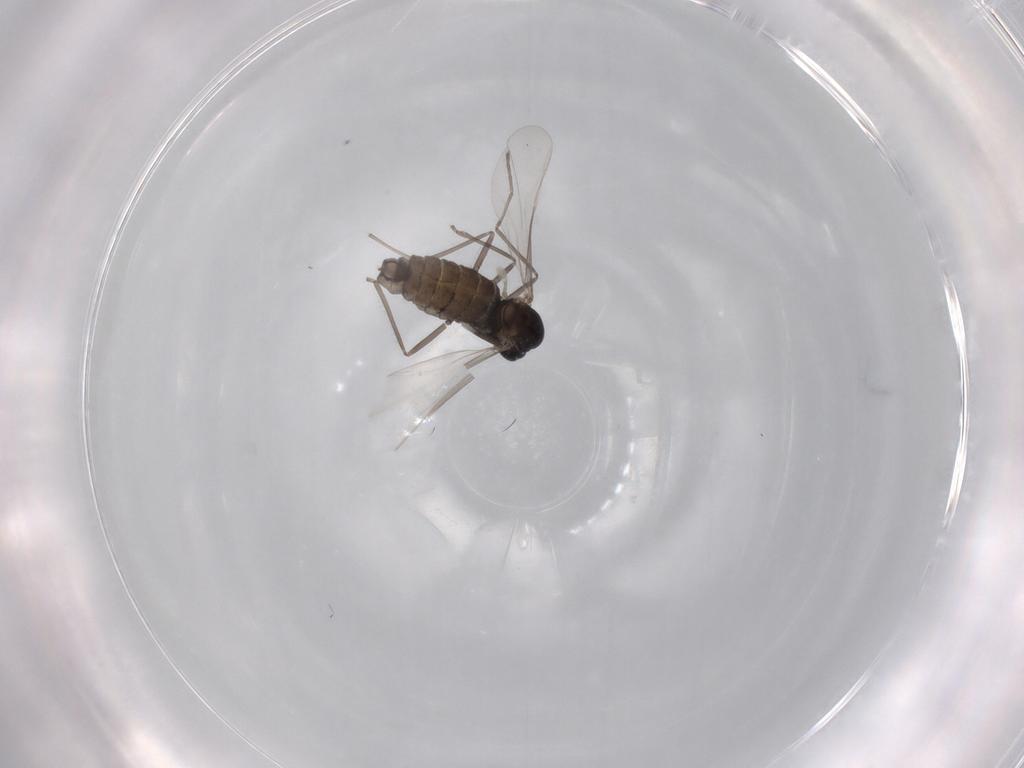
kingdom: Animalia
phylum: Arthropoda
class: Insecta
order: Diptera
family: Cecidomyiidae
